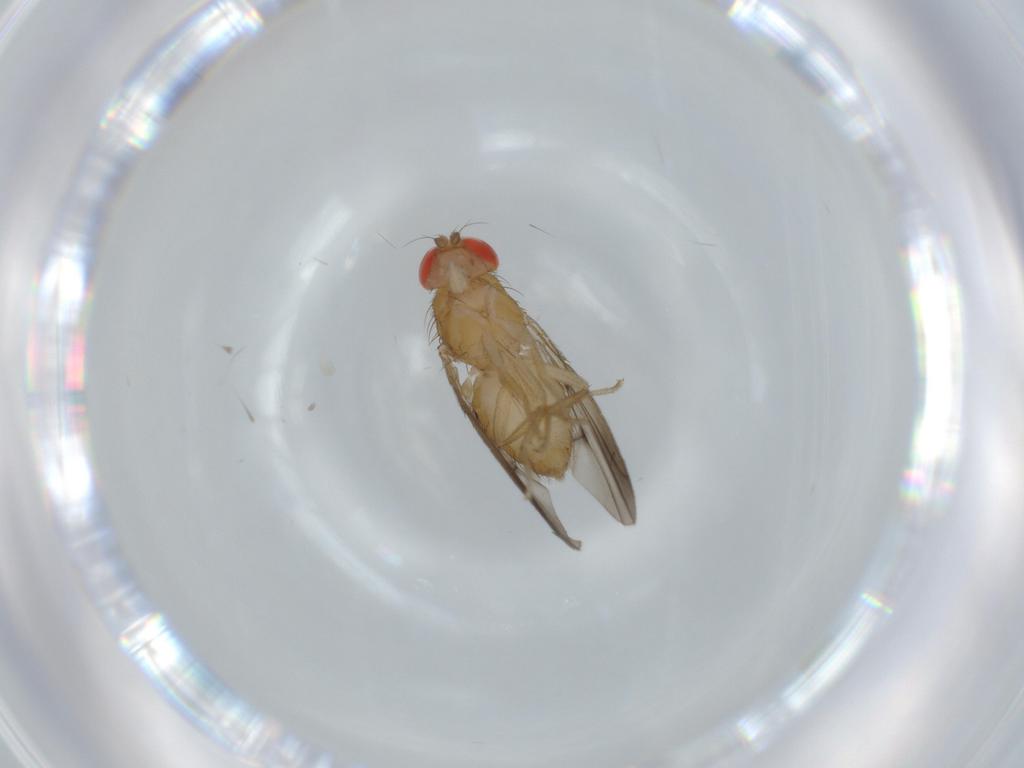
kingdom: Animalia
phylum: Arthropoda
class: Insecta
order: Diptera
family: Drosophilidae
